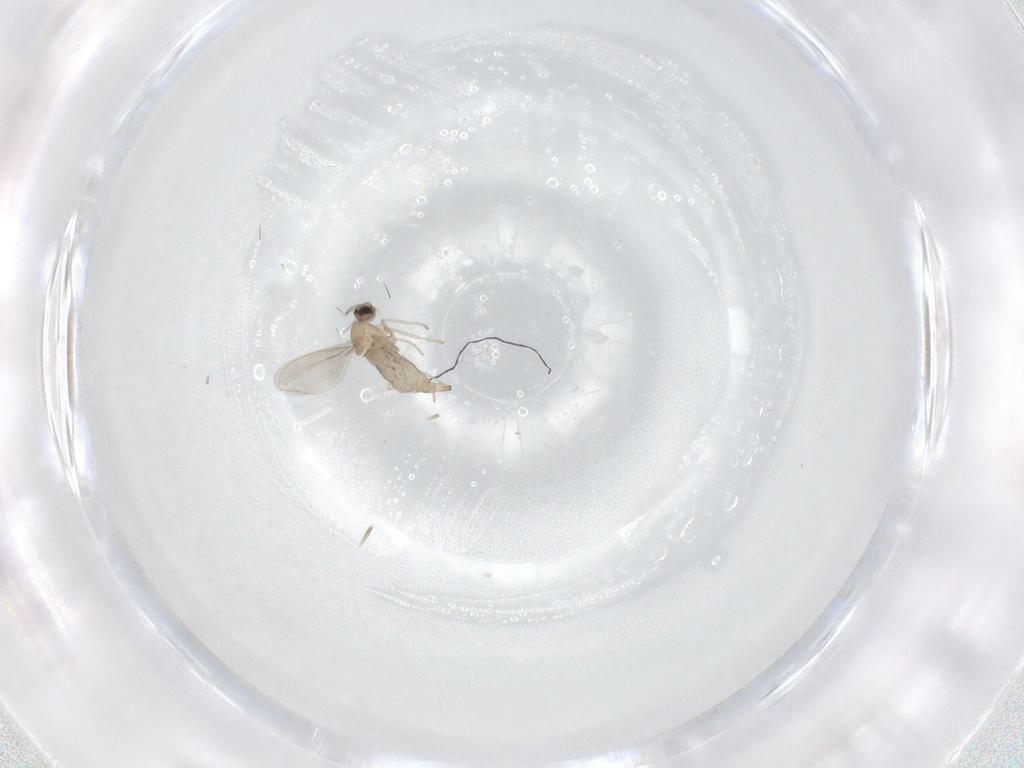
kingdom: Animalia
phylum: Arthropoda
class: Insecta
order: Diptera
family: Cecidomyiidae
